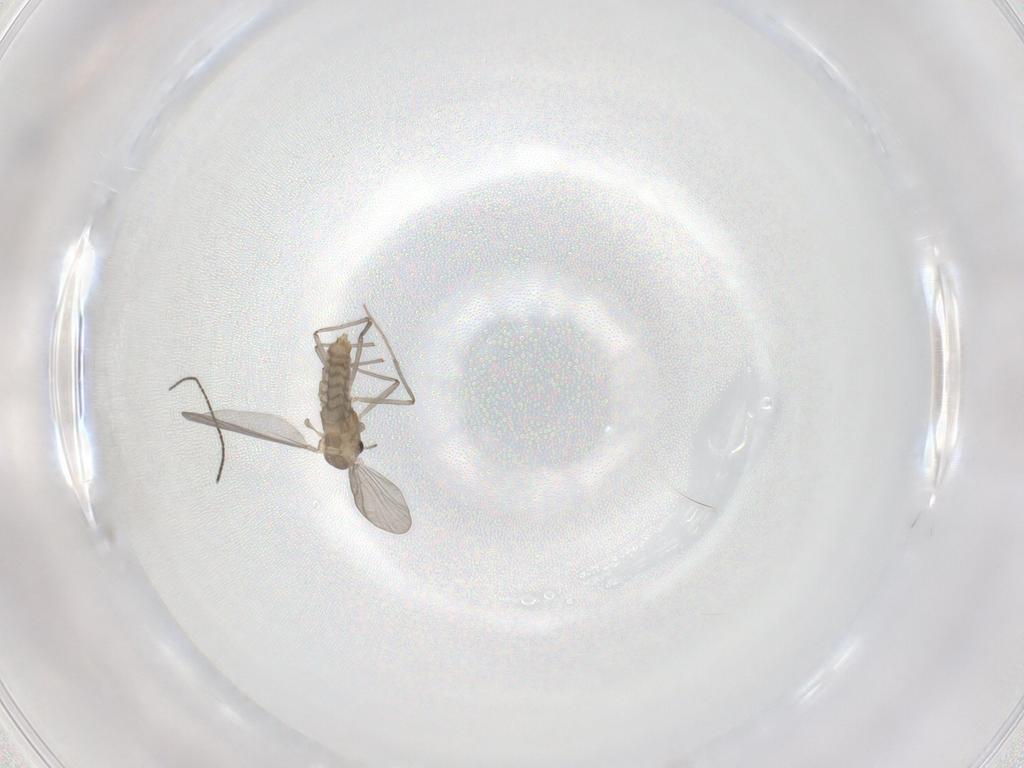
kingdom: Animalia
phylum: Arthropoda
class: Insecta
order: Diptera
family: Chironomidae
